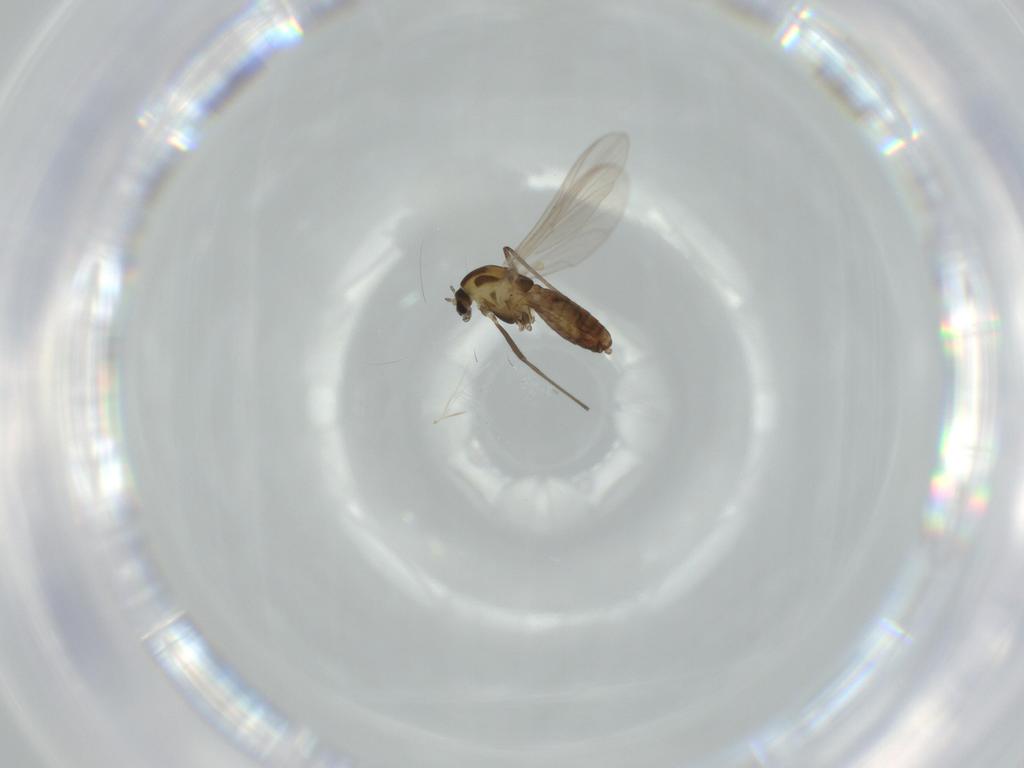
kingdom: Animalia
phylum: Arthropoda
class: Insecta
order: Diptera
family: Chironomidae
